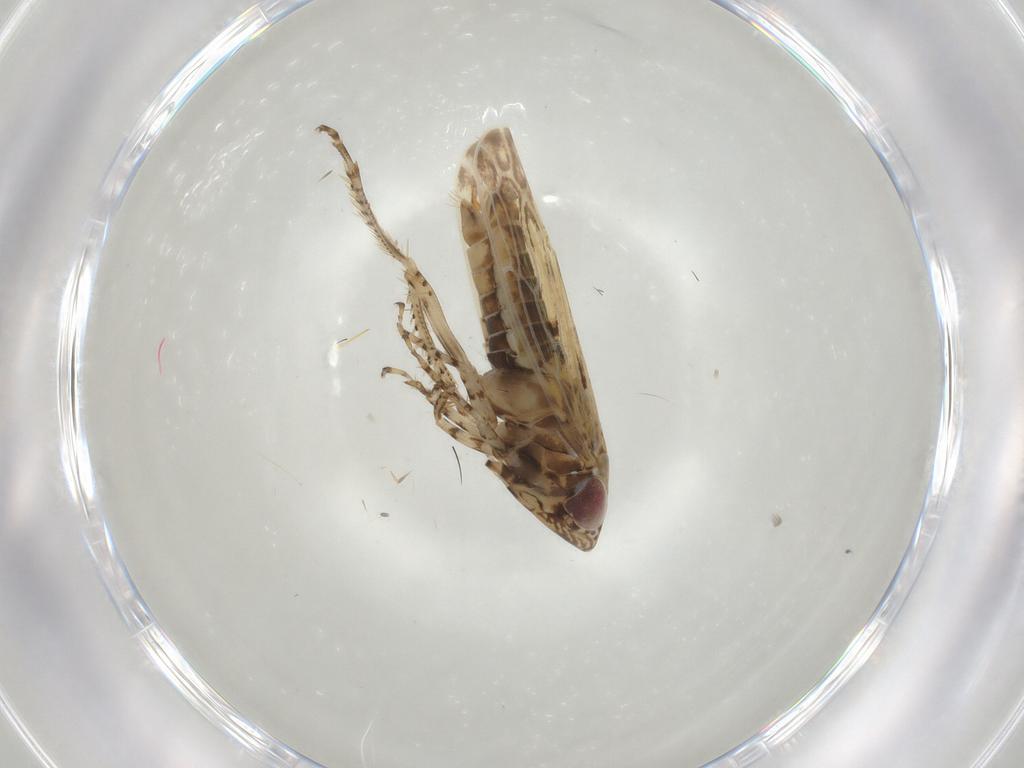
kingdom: Animalia
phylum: Arthropoda
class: Insecta
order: Hemiptera
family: Cicadellidae
